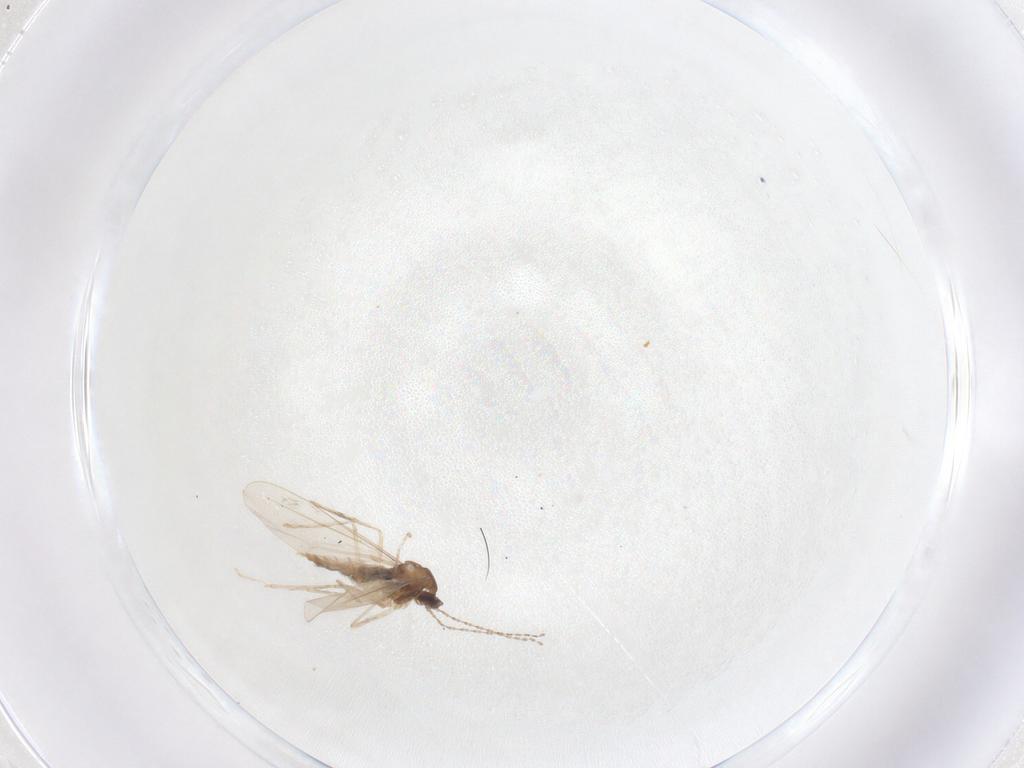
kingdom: Animalia
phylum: Arthropoda
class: Insecta
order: Diptera
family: Cecidomyiidae
